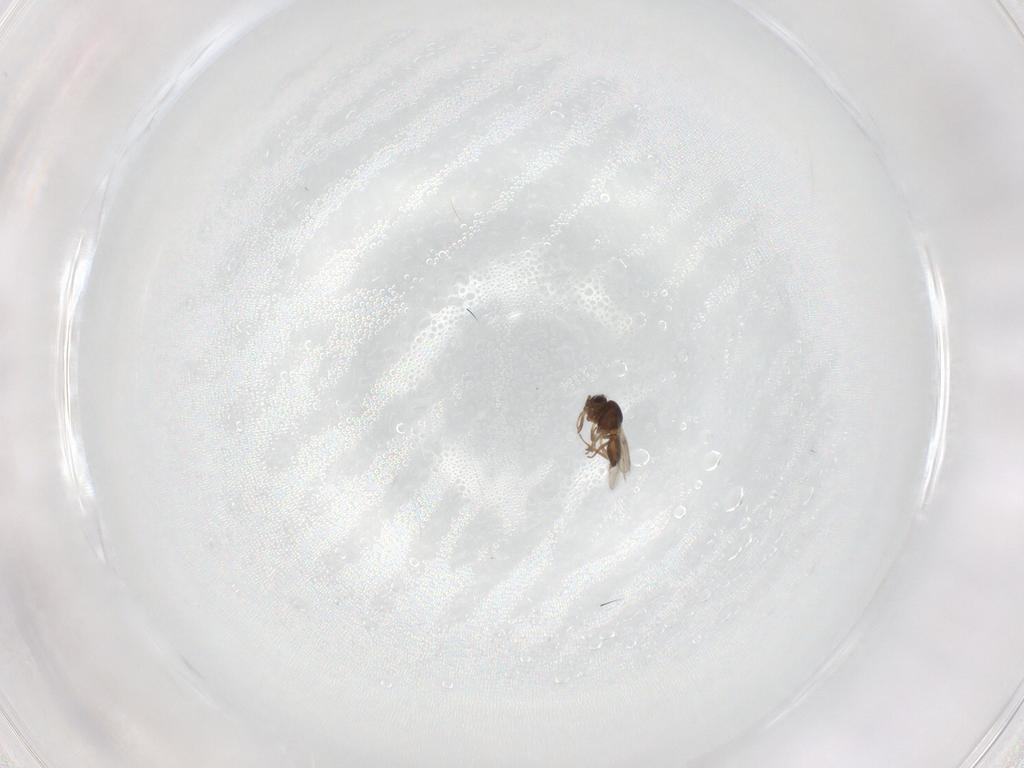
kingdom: Animalia
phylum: Arthropoda
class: Insecta
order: Hymenoptera
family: Scelionidae
